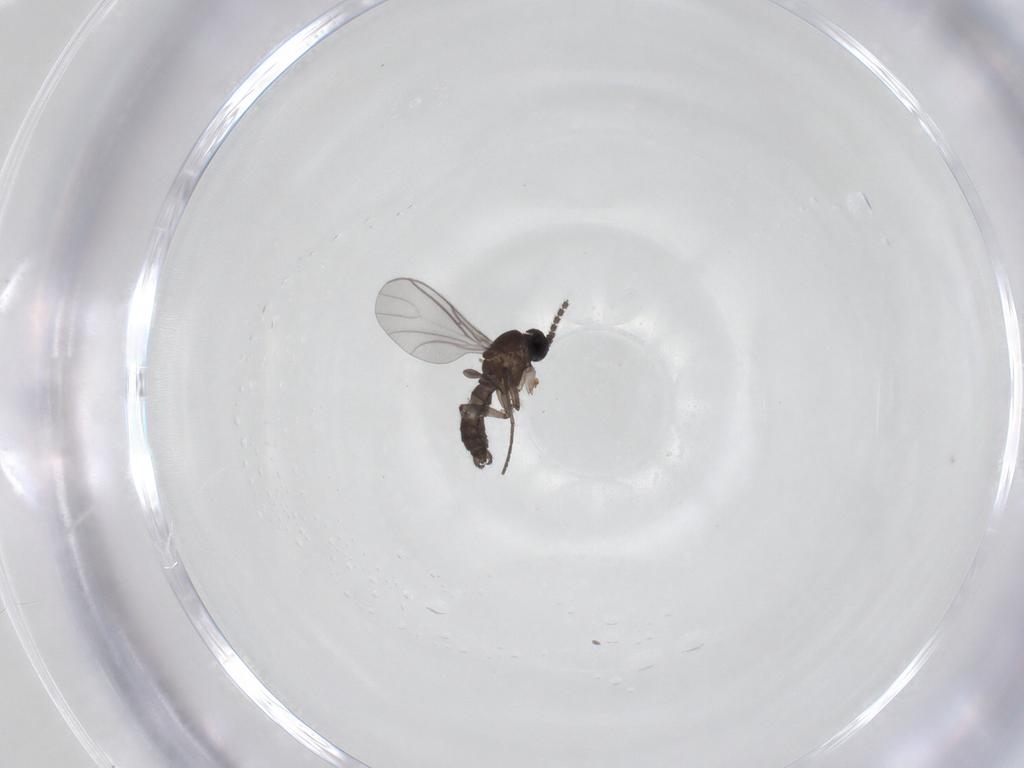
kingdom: Animalia
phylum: Arthropoda
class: Insecta
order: Diptera
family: Sciaridae
